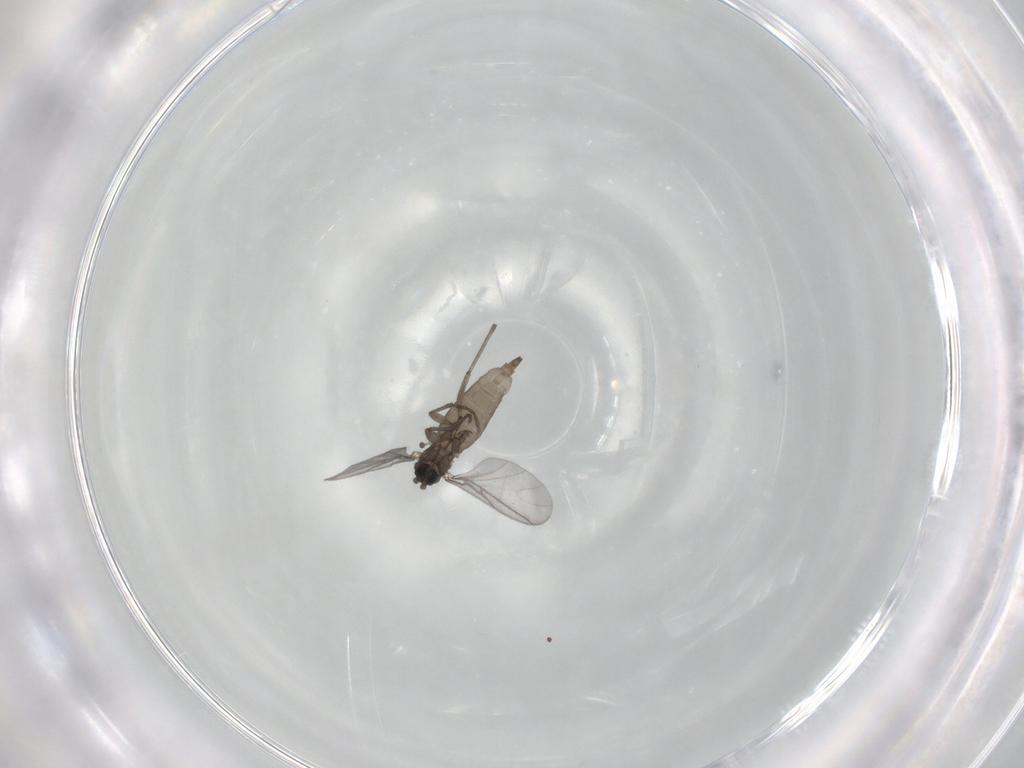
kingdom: Animalia
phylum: Arthropoda
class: Insecta
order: Diptera
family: Sciaridae
